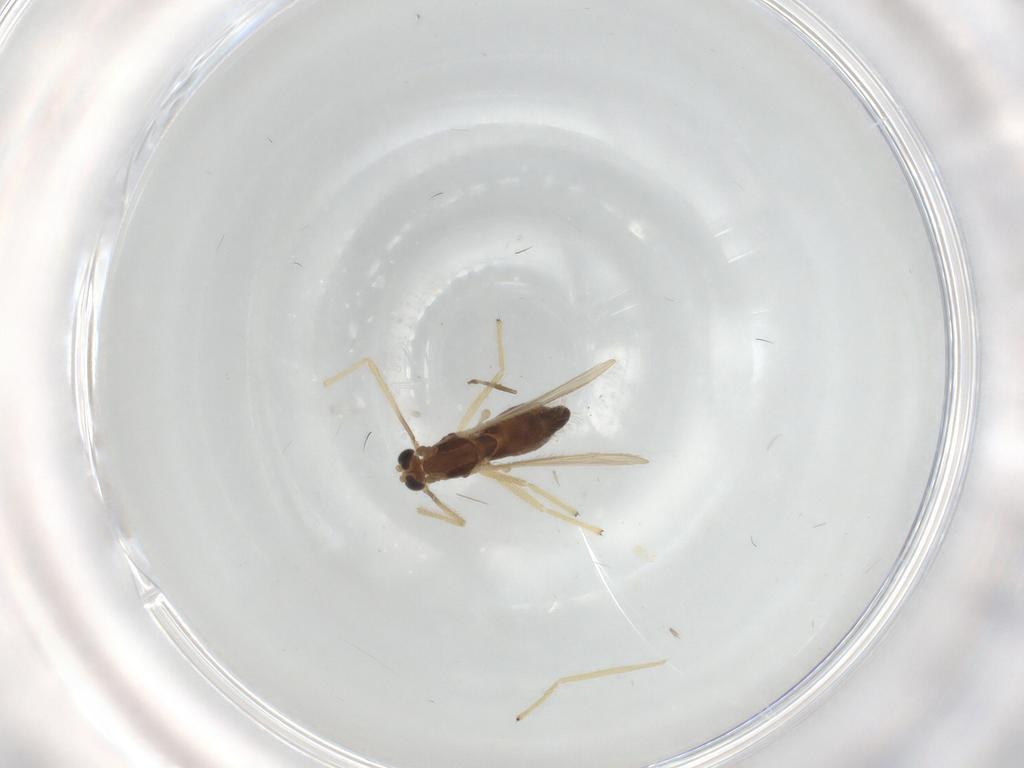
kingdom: Animalia
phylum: Arthropoda
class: Insecta
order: Diptera
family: Chironomidae
